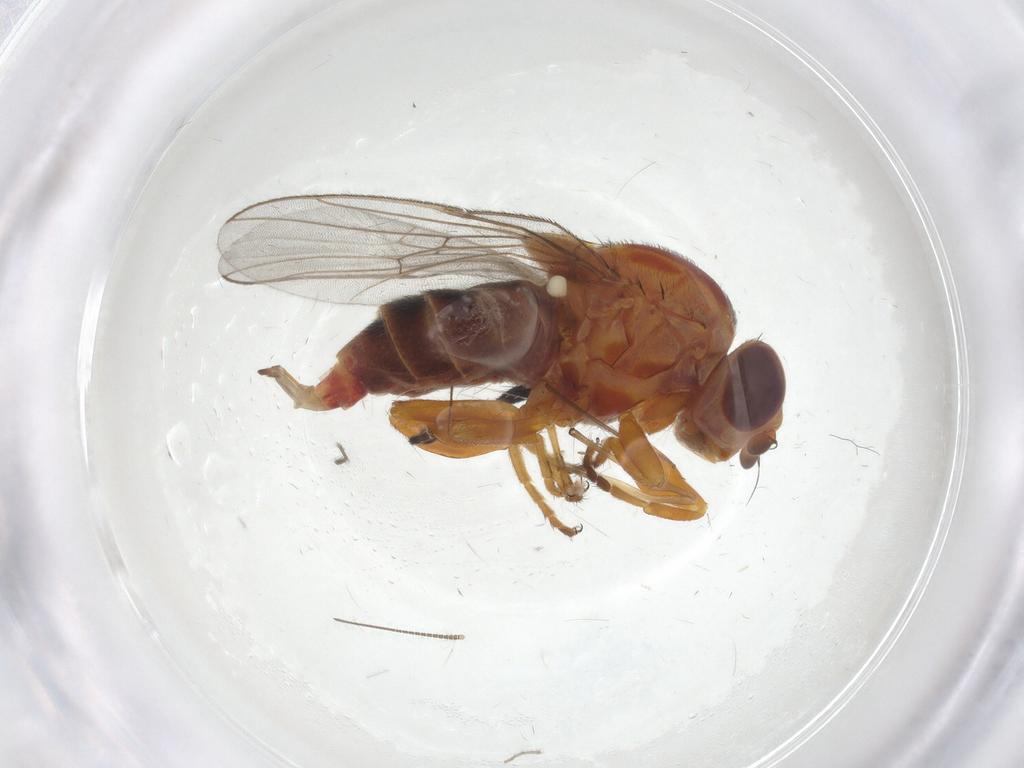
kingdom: Animalia
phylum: Arthropoda
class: Insecta
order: Diptera
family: Chloropidae
